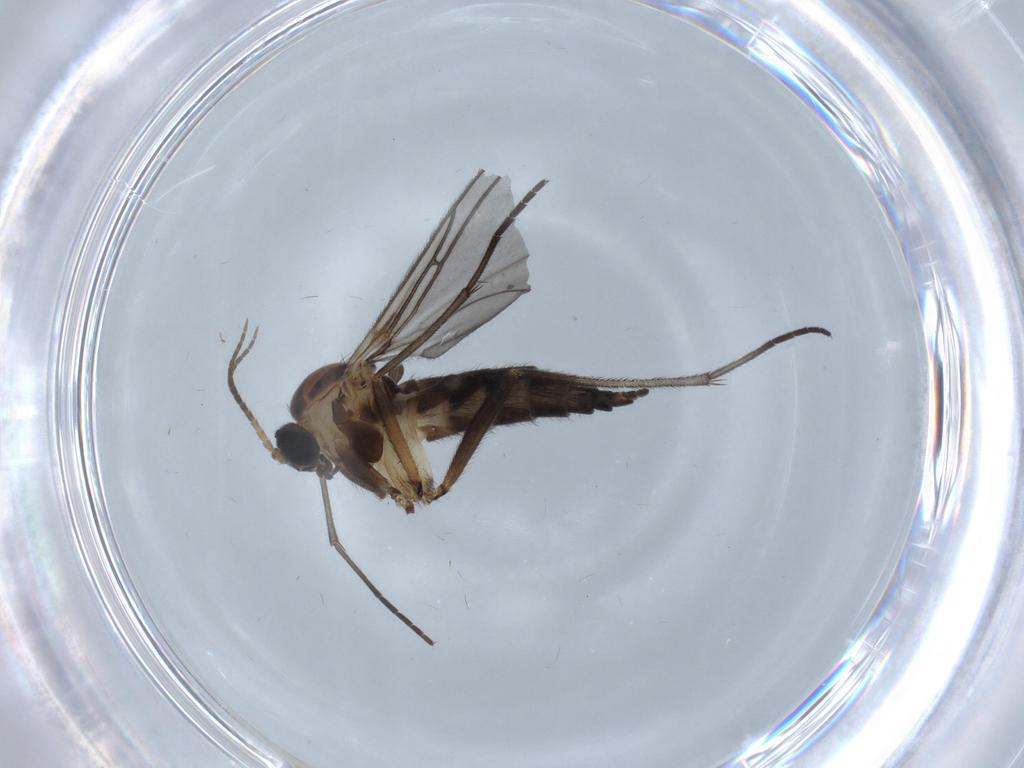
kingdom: Animalia
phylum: Arthropoda
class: Insecta
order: Diptera
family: Sciaridae
